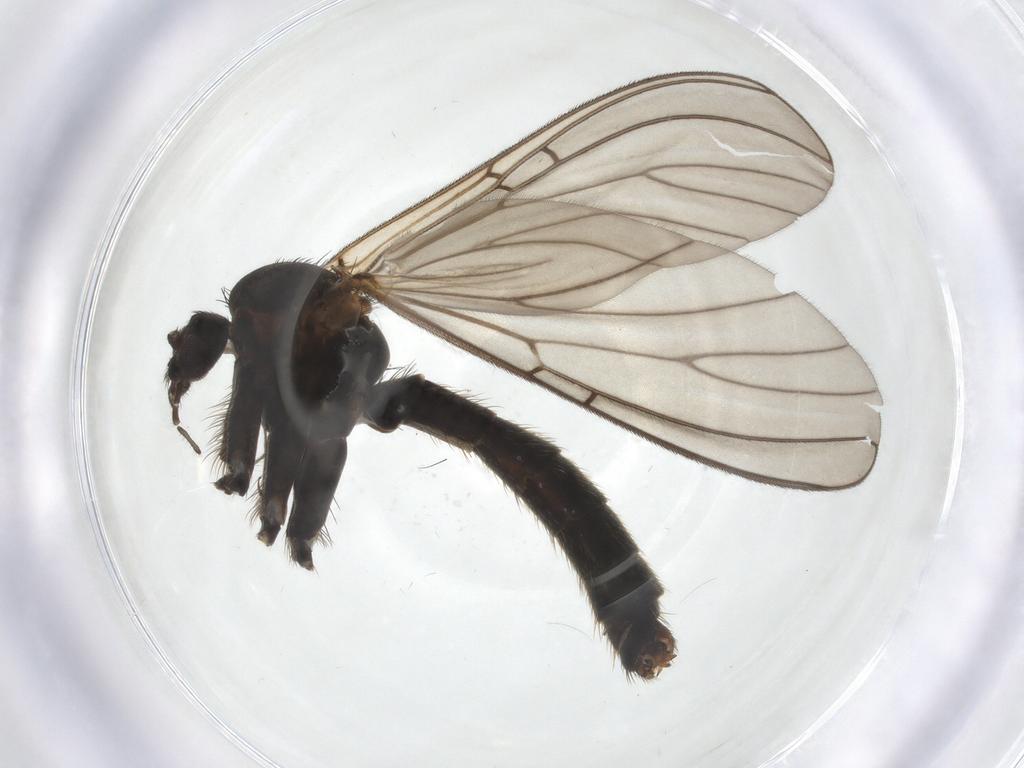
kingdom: Animalia
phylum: Arthropoda
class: Insecta
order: Diptera
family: Mycetophilidae
